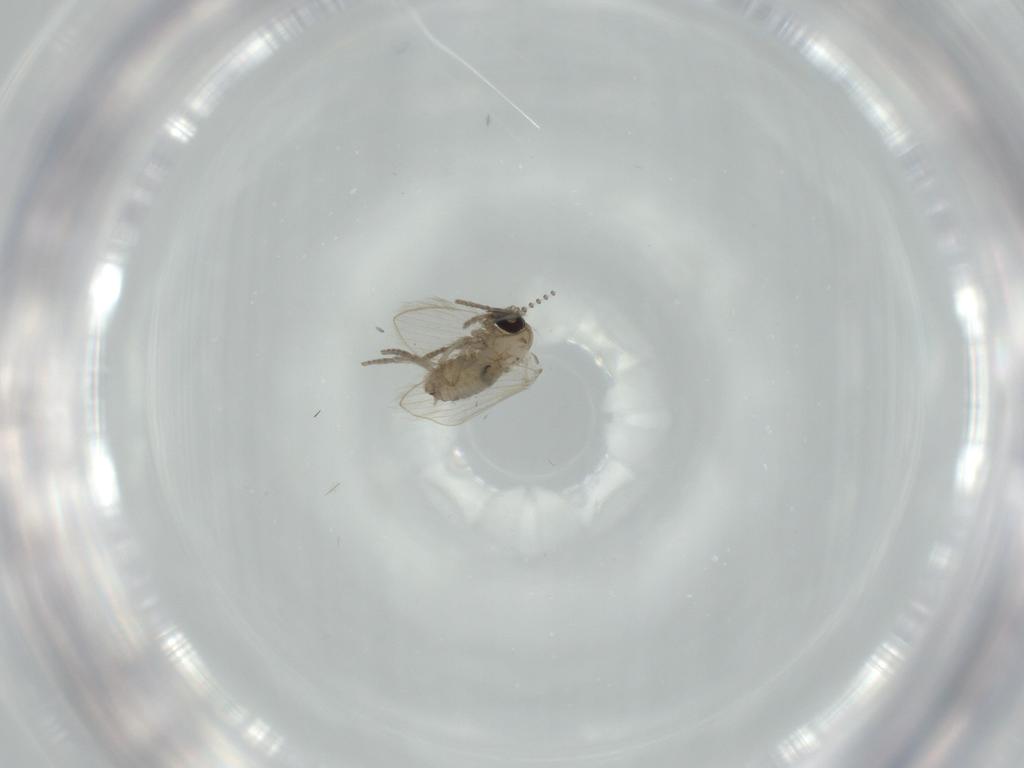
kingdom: Animalia
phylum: Arthropoda
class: Insecta
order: Diptera
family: Psychodidae
